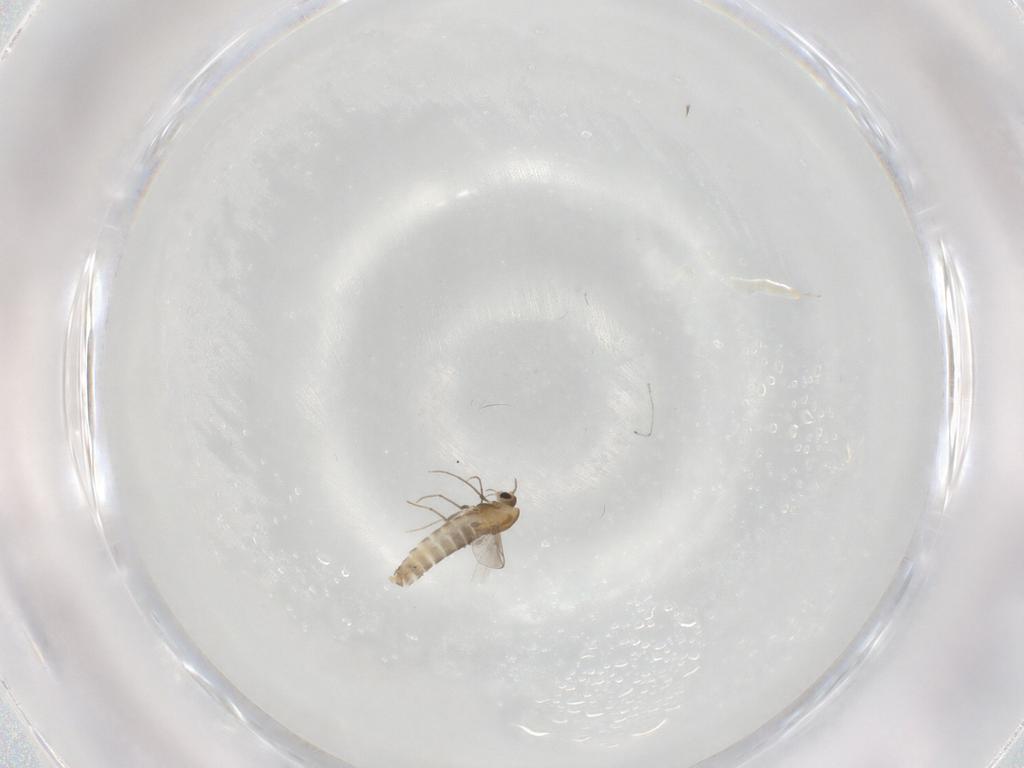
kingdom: Animalia
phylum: Arthropoda
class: Insecta
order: Diptera
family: Chironomidae
